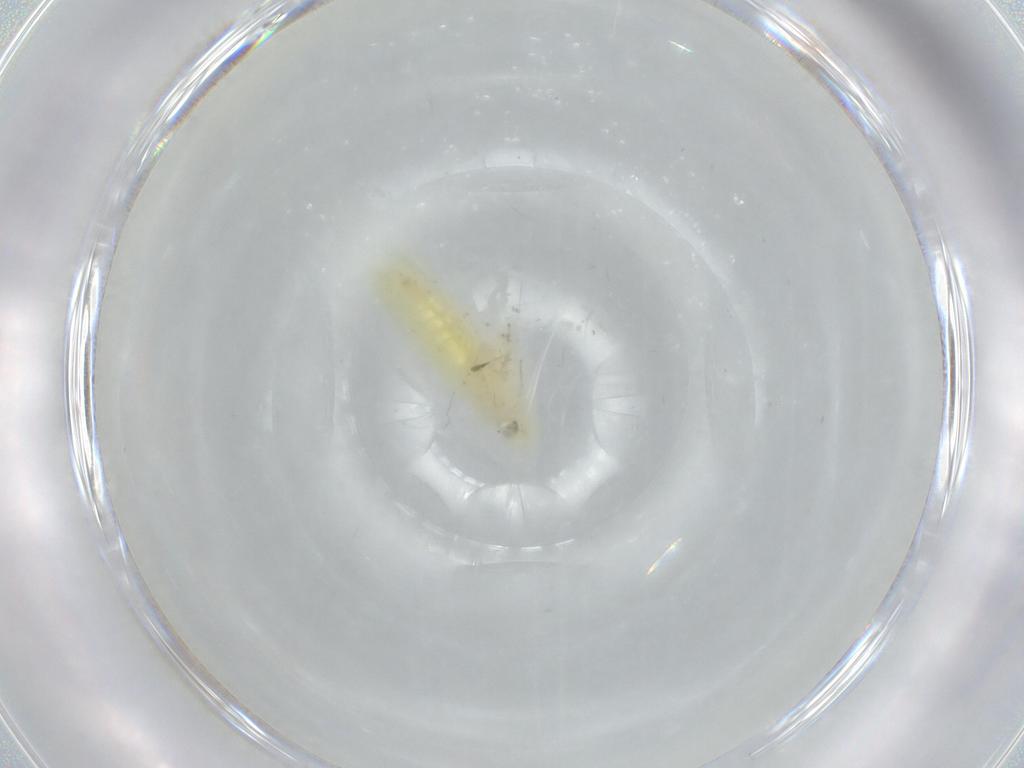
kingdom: Animalia
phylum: Arthropoda
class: Insecta
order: Hemiptera
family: Cicadellidae
